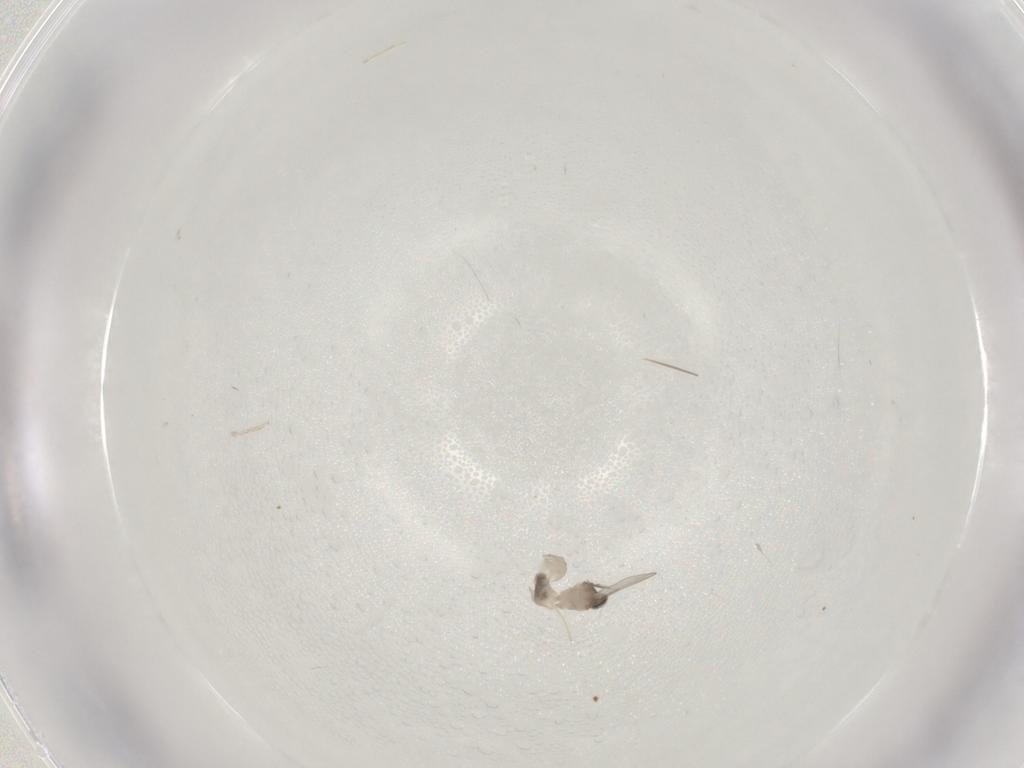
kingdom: Animalia
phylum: Arthropoda
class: Insecta
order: Diptera
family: Cecidomyiidae
